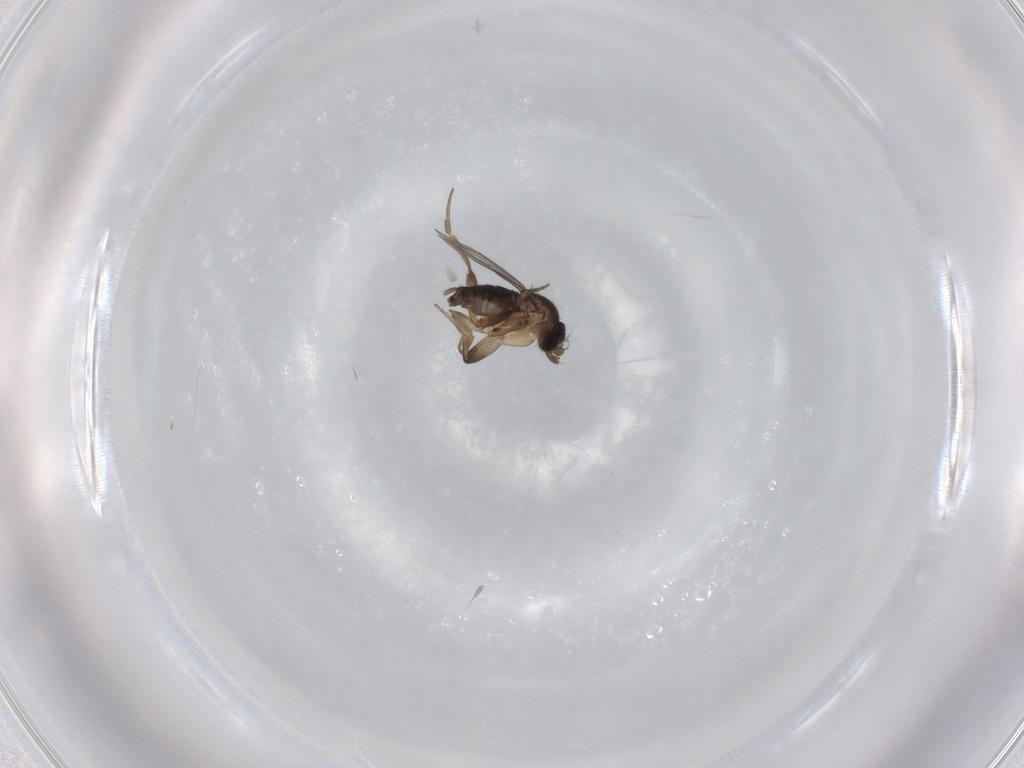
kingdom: Animalia
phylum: Arthropoda
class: Insecta
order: Diptera
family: Phoridae
